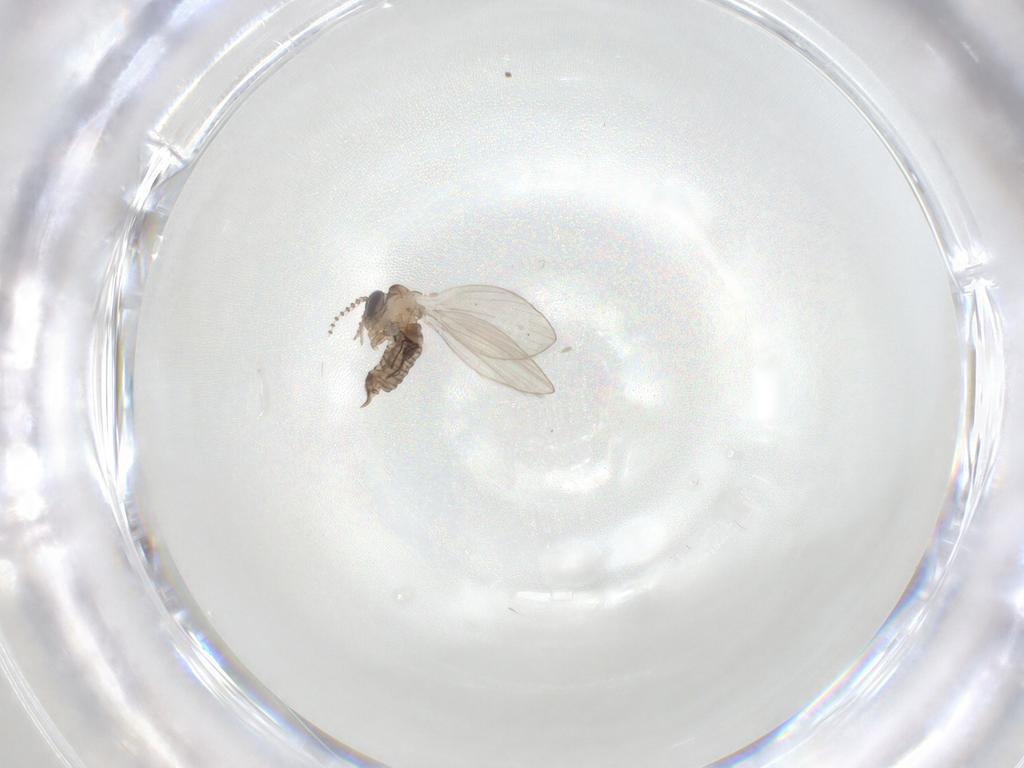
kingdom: Animalia
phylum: Arthropoda
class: Insecta
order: Diptera
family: Psychodidae
